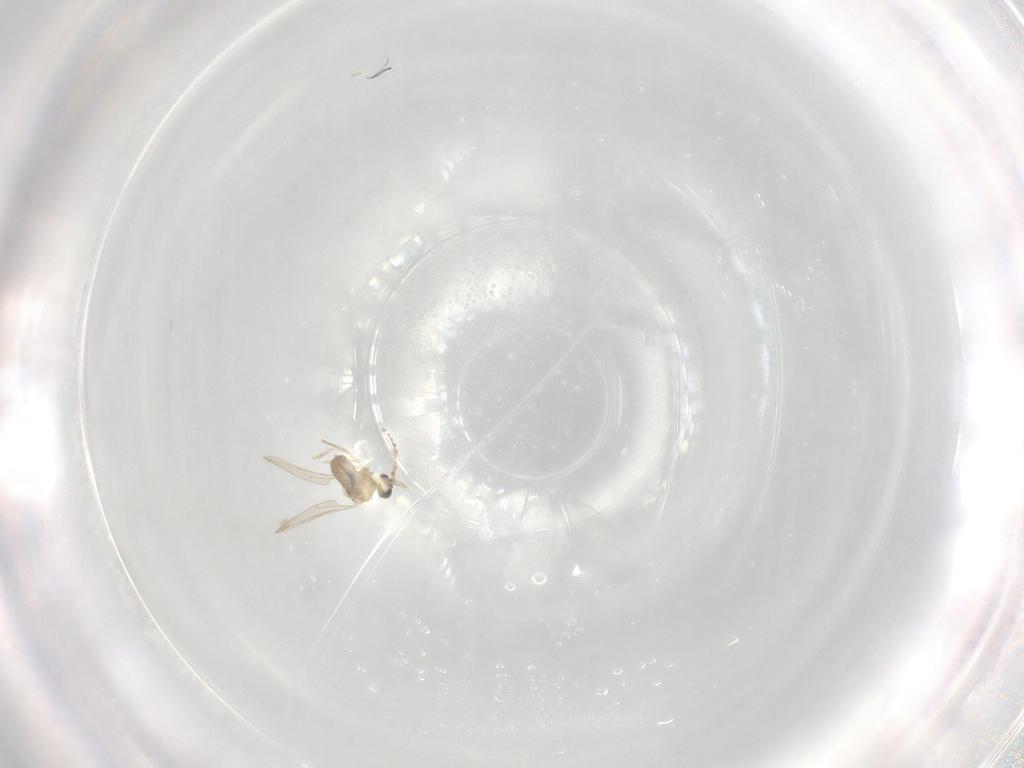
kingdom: Animalia
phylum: Arthropoda
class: Insecta
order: Diptera
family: Cecidomyiidae
